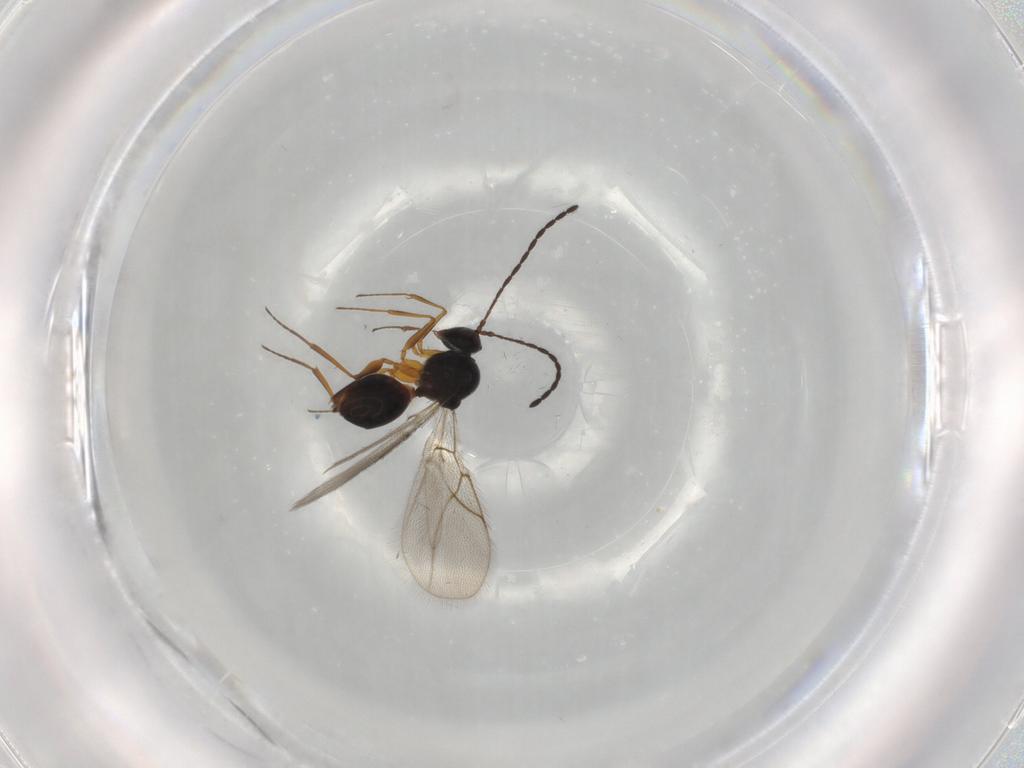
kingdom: Animalia
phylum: Arthropoda
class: Insecta
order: Hymenoptera
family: Figitidae
